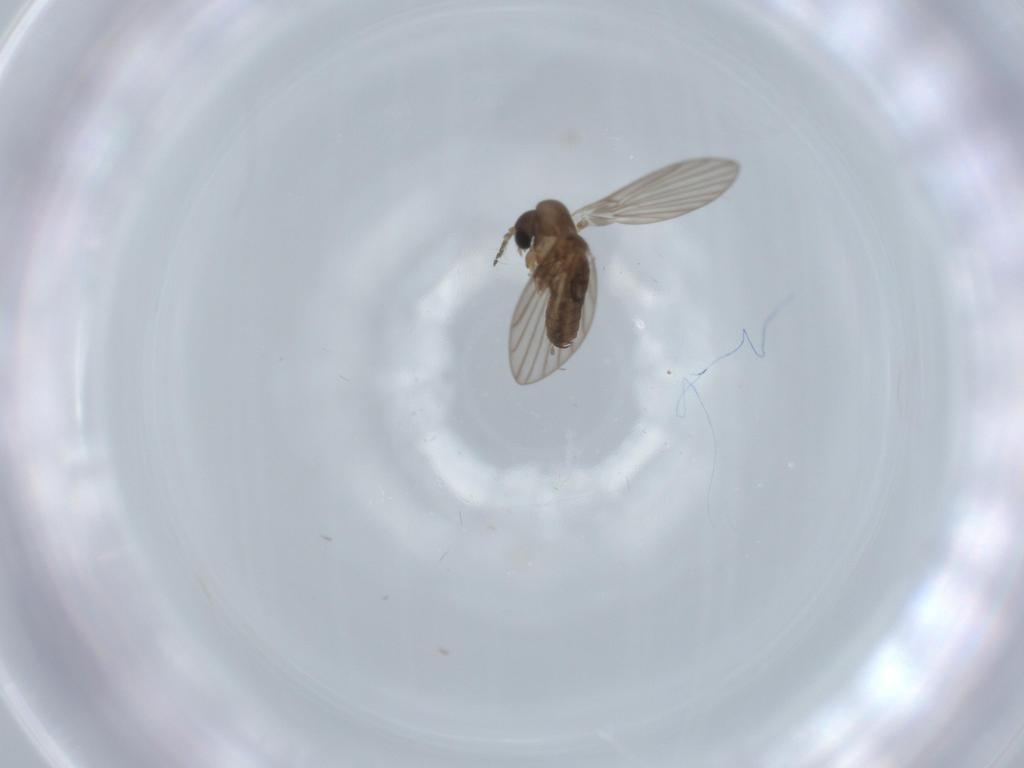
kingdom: Animalia
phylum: Arthropoda
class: Insecta
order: Diptera
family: Psychodidae
